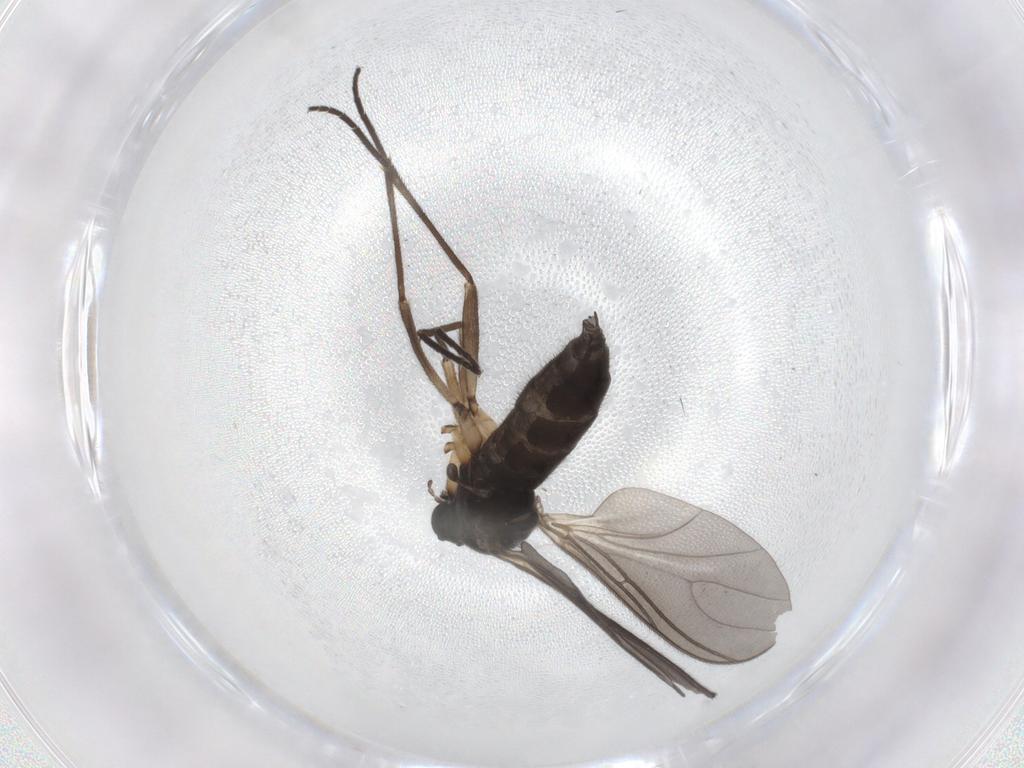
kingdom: Animalia
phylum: Arthropoda
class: Insecta
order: Diptera
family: Sciaridae
